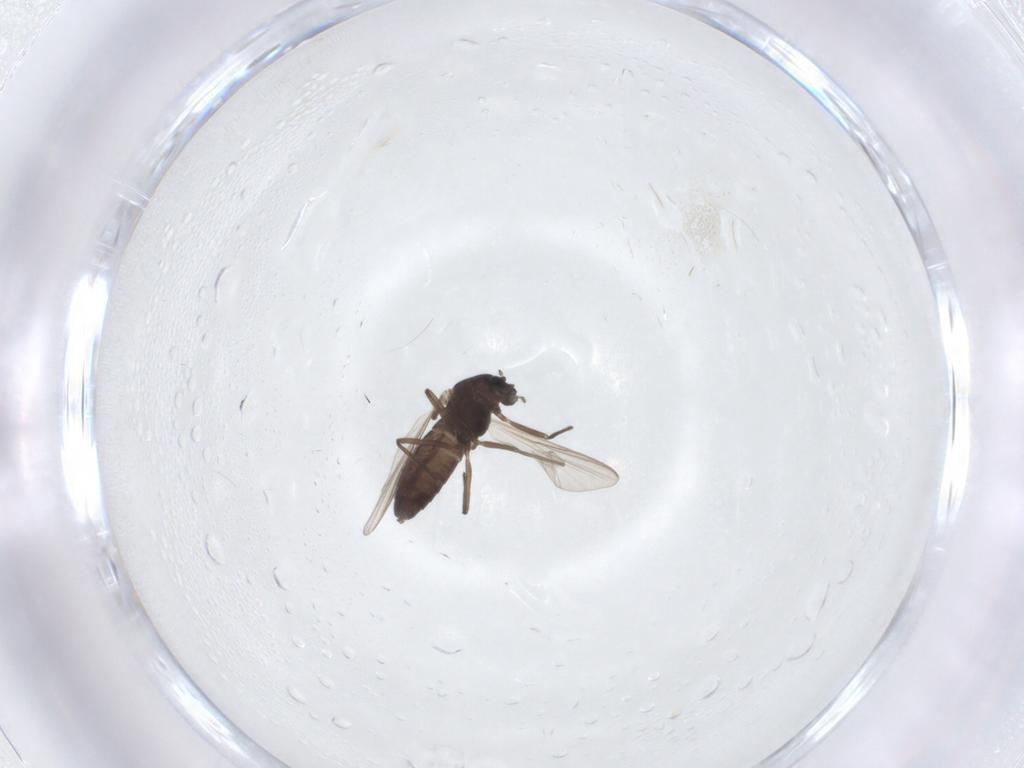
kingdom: Animalia
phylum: Arthropoda
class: Insecta
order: Diptera
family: Chironomidae
